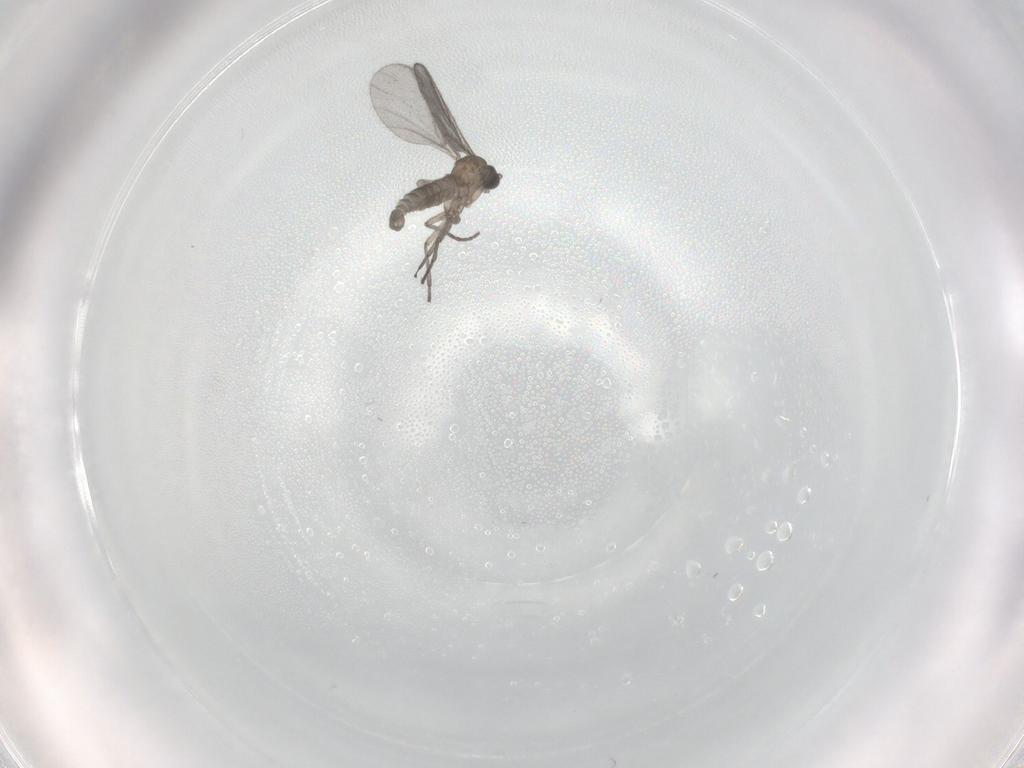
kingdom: Animalia
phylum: Arthropoda
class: Insecta
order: Diptera
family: Sciaridae
